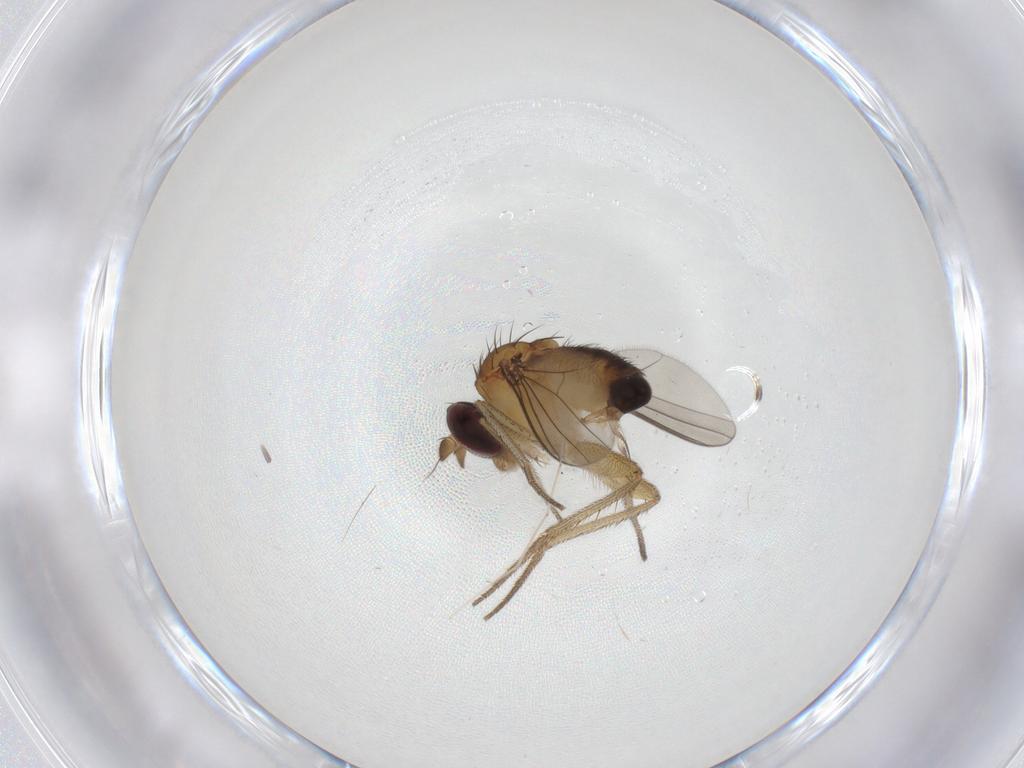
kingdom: Animalia
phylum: Arthropoda
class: Insecta
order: Diptera
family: Dolichopodidae
